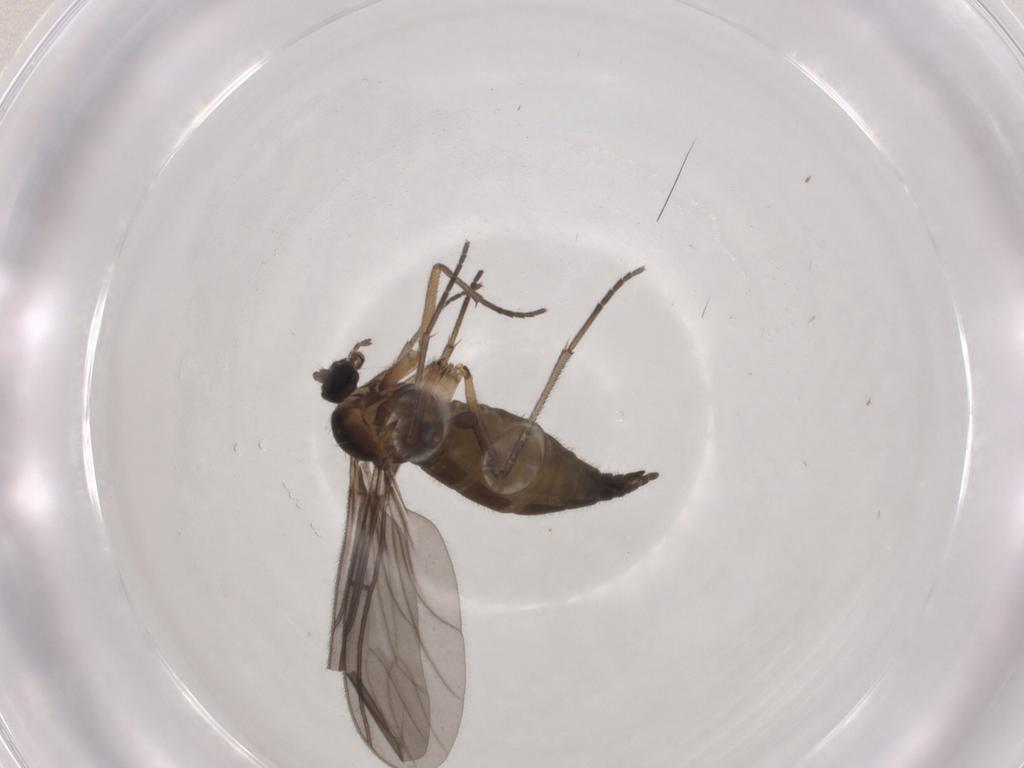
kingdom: Animalia
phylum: Arthropoda
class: Insecta
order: Diptera
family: Sciaridae
